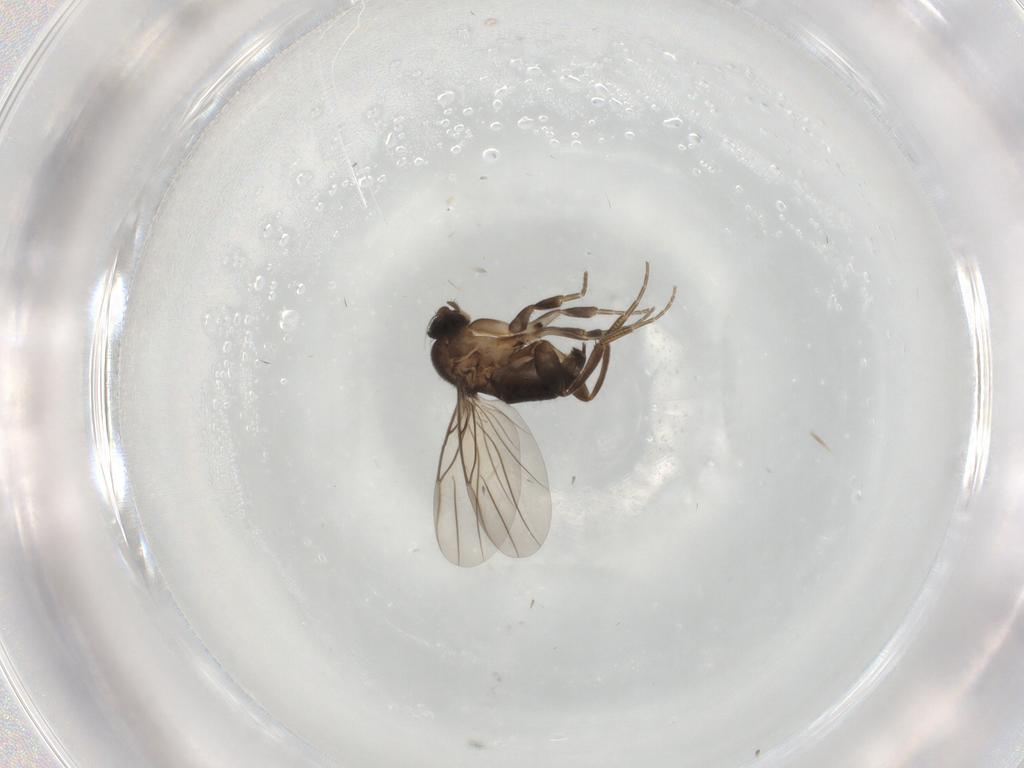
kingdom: Animalia
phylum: Arthropoda
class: Insecta
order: Diptera
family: Phoridae
